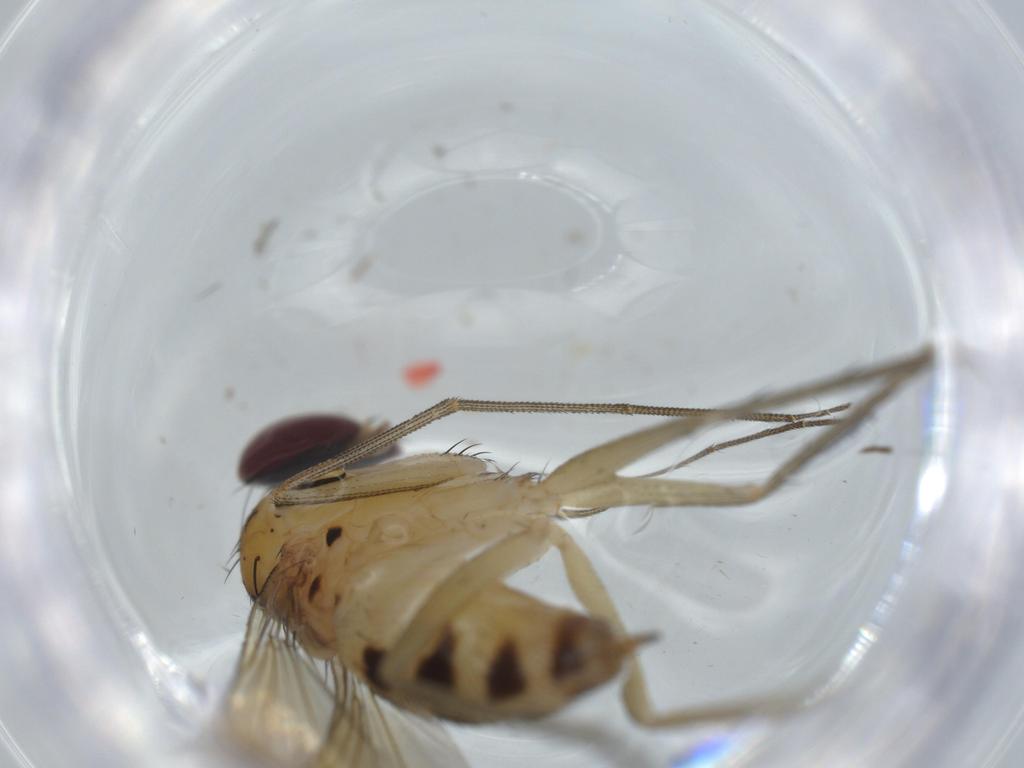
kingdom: Animalia
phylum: Arthropoda
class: Insecta
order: Diptera
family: Dolichopodidae
